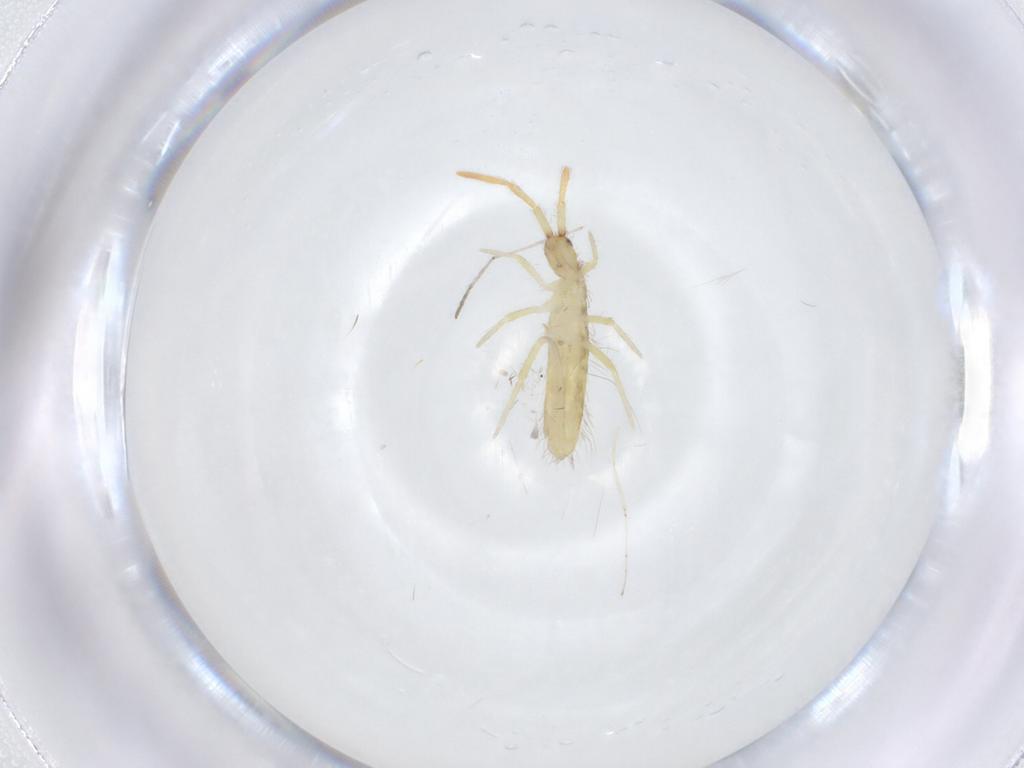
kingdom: Animalia
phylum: Arthropoda
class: Collembola
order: Entomobryomorpha
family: Entomobryidae
